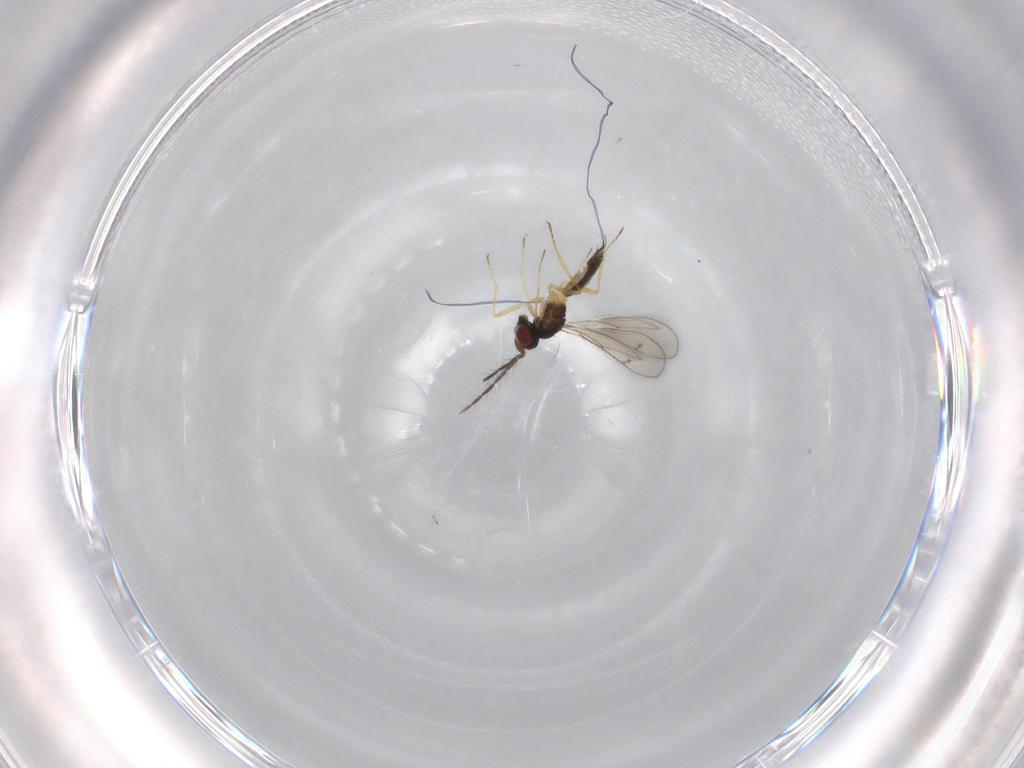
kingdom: Animalia
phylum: Arthropoda
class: Insecta
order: Hymenoptera
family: Eulophidae
